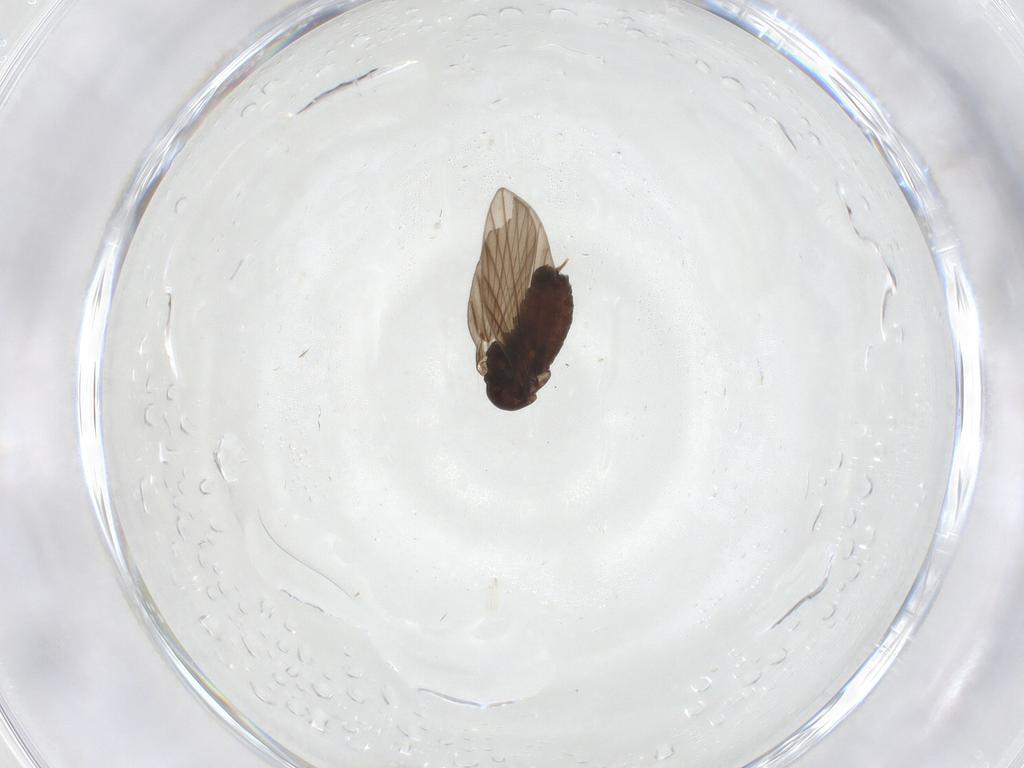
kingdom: Animalia
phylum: Arthropoda
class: Insecta
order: Diptera
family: Psychodidae
